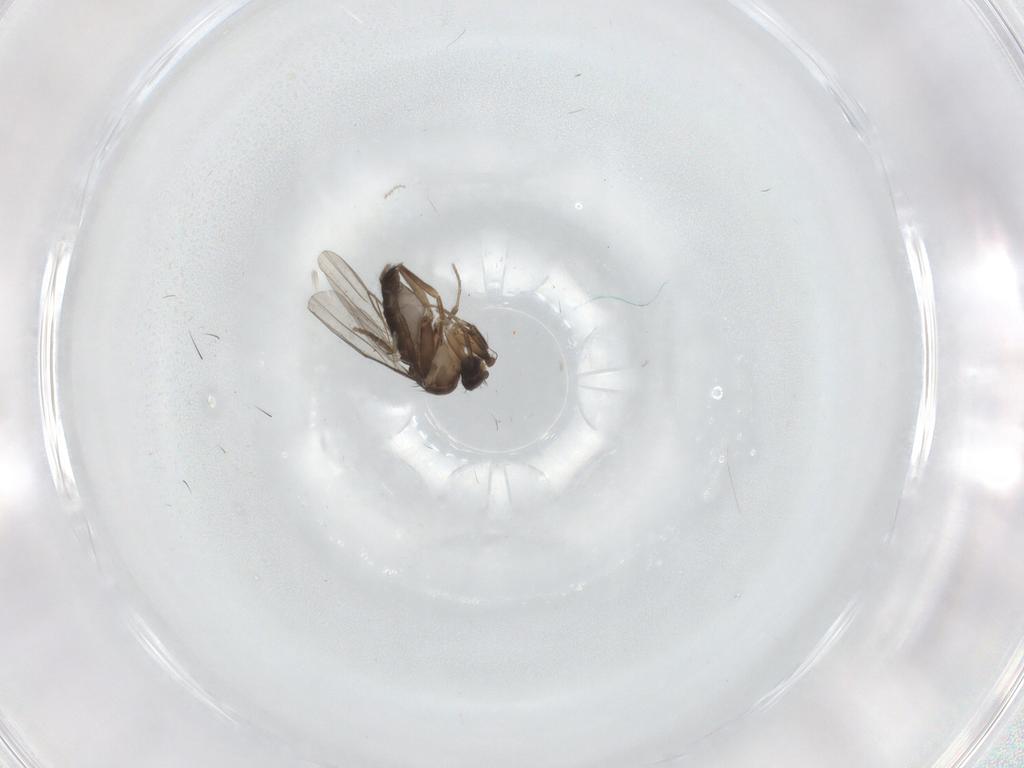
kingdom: Animalia
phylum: Arthropoda
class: Insecta
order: Diptera
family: Phoridae
